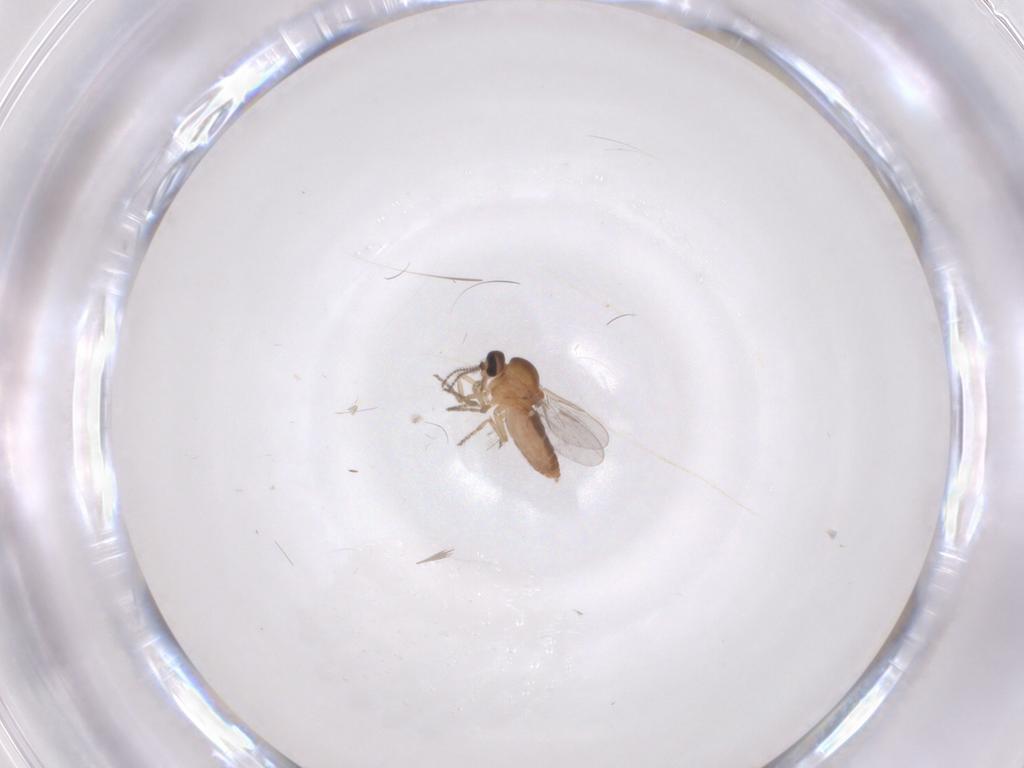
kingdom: Animalia
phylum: Arthropoda
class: Insecta
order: Diptera
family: Ceratopogonidae
